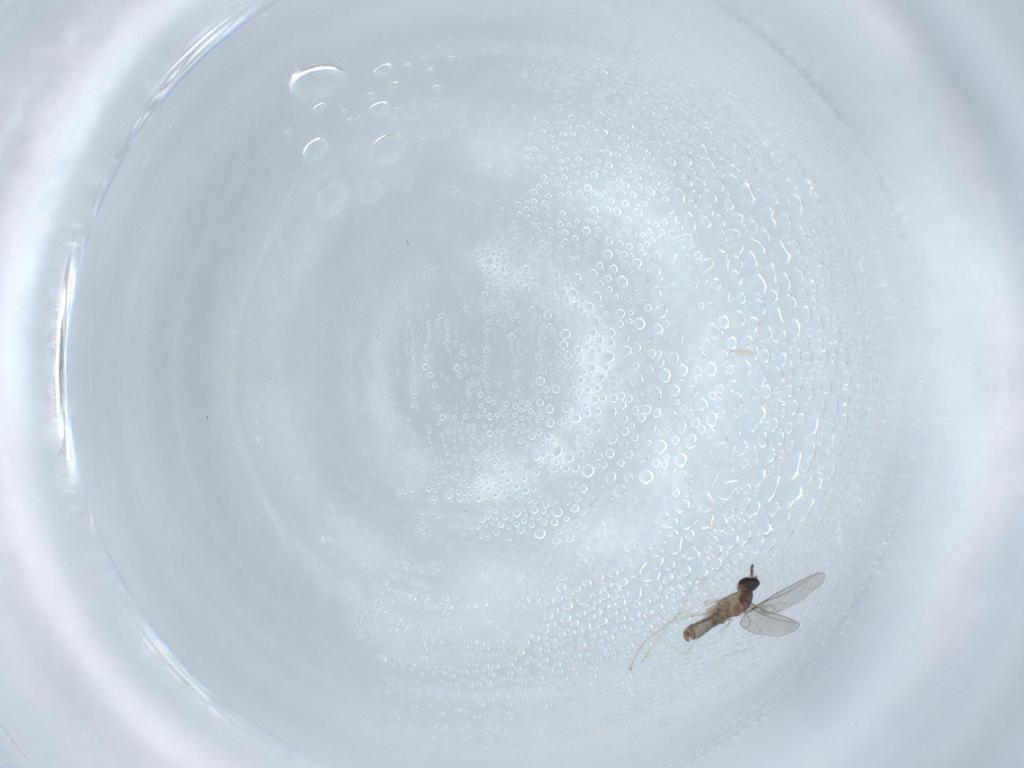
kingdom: Animalia
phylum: Arthropoda
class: Insecta
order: Diptera
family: Cecidomyiidae
